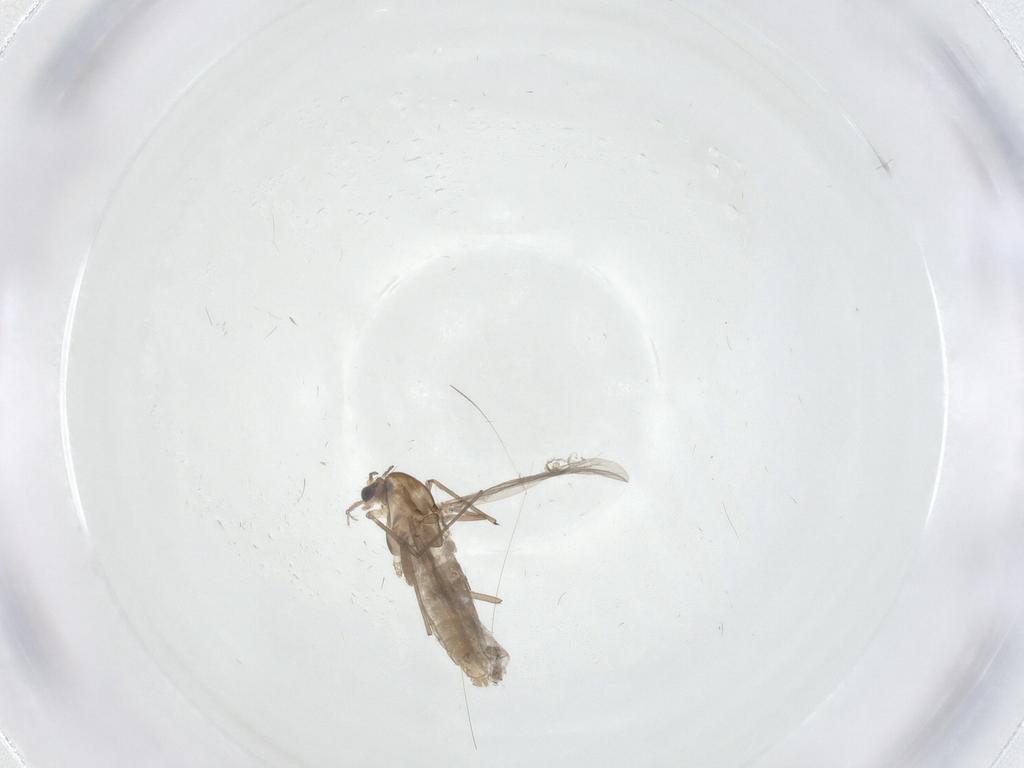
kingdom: Animalia
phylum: Arthropoda
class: Insecta
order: Diptera
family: Chironomidae
